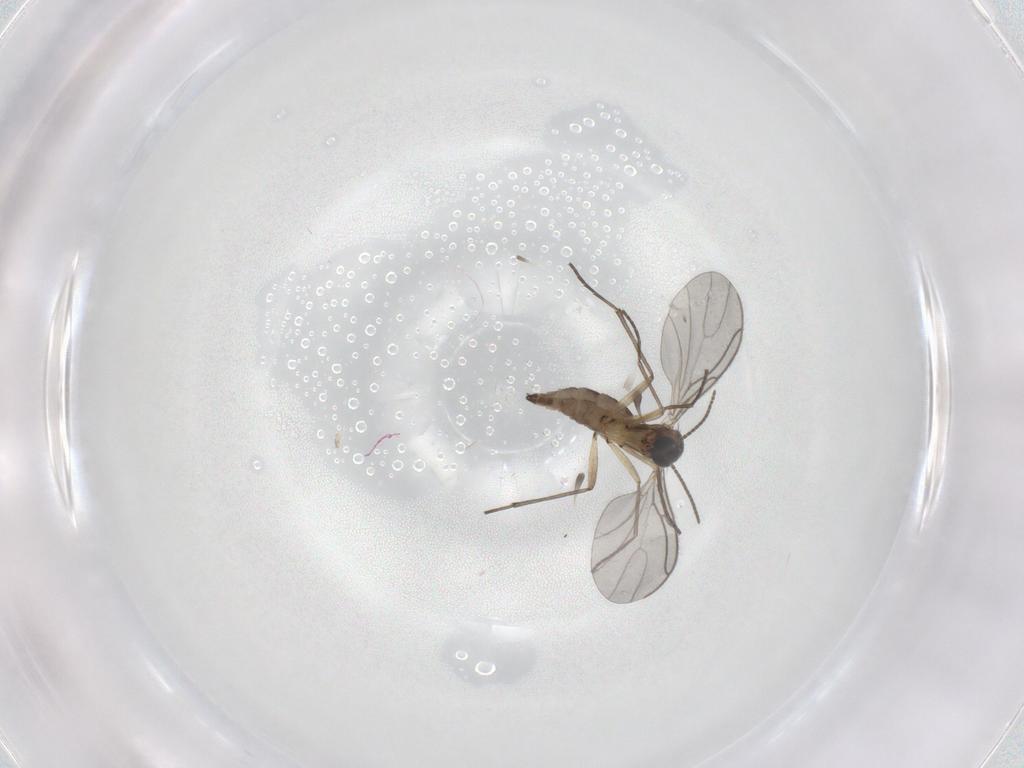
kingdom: Animalia
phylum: Arthropoda
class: Insecta
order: Diptera
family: Sciaridae
